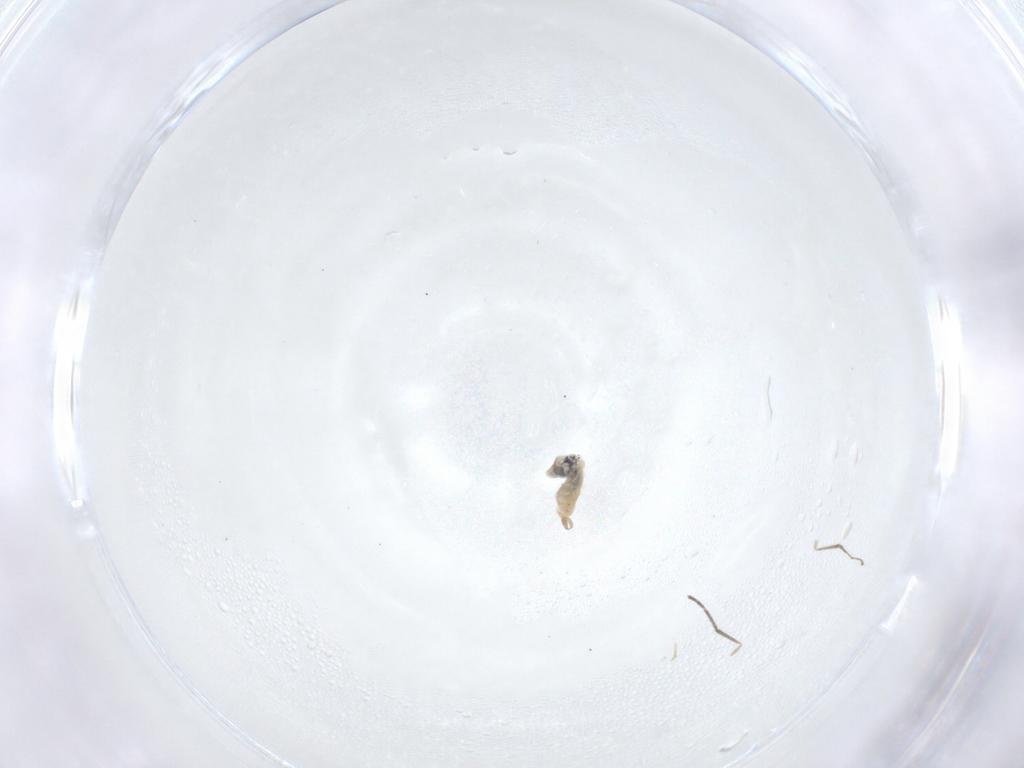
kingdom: Animalia
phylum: Arthropoda
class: Insecta
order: Diptera
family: Cecidomyiidae
